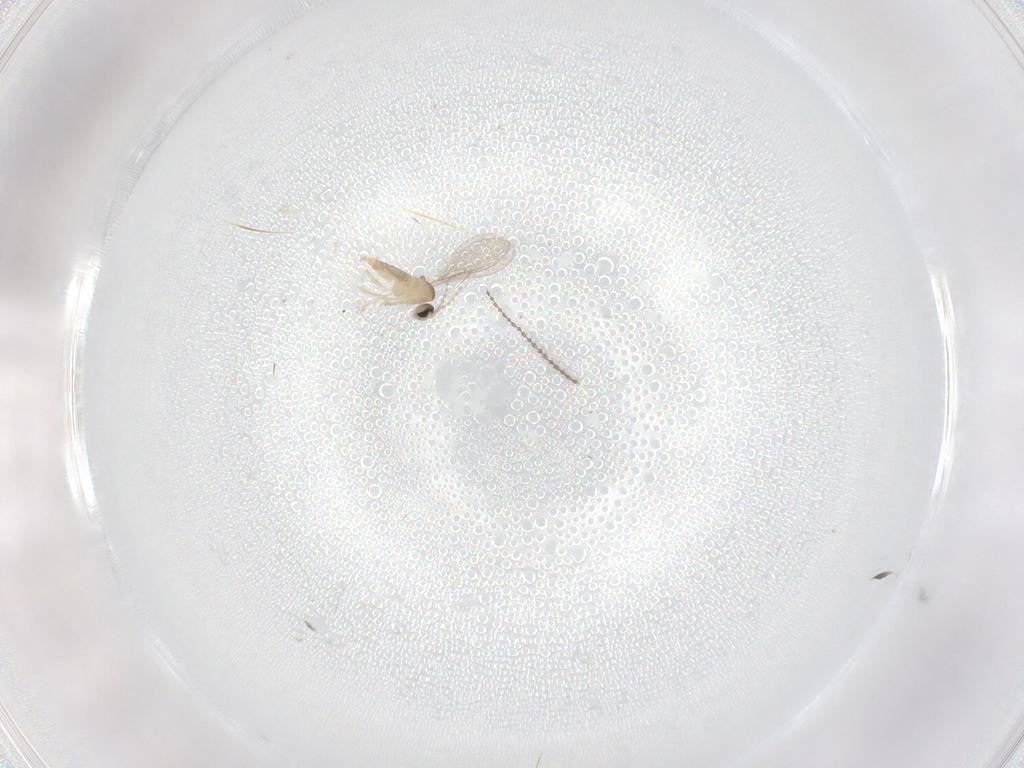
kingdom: Animalia
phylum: Arthropoda
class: Insecta
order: Diptera
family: Cecidomyiidae
